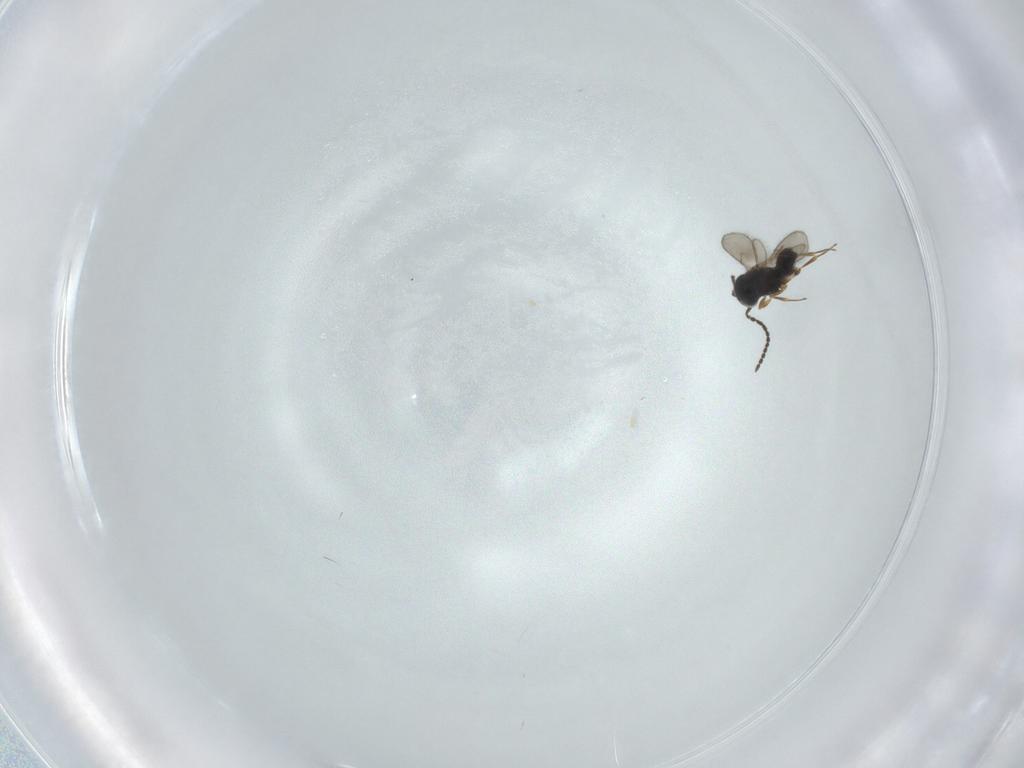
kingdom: Animalia
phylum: Arthropoda
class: Insecta
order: Hymenoptera
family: Scelionidae
